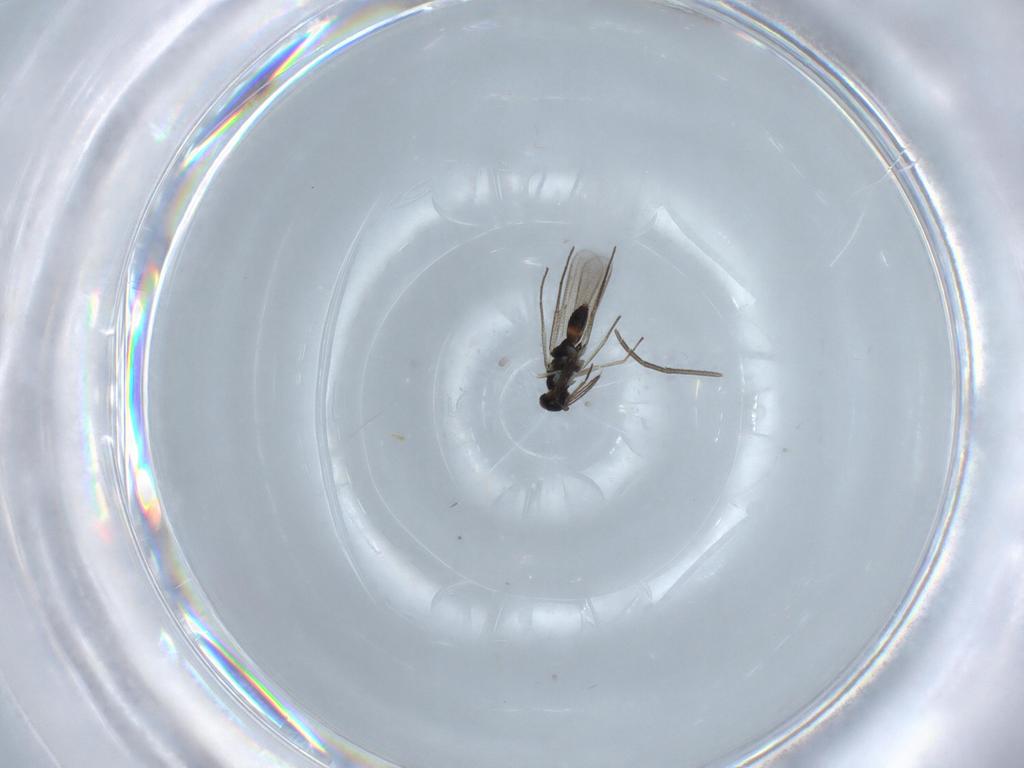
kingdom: Animalia
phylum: Arthropoda
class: Insecta
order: Hymenoptera
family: Eulophidae
